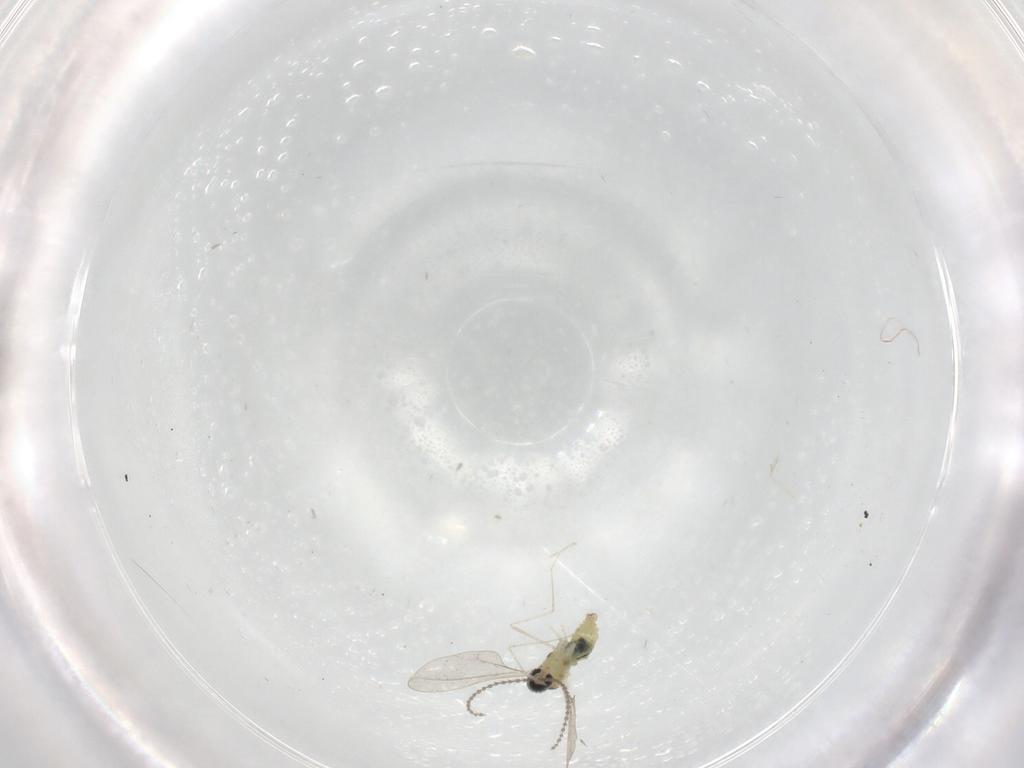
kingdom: Animalia
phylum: Arthropoda
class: Insecta
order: Diptera
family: Cecidomyiidae
